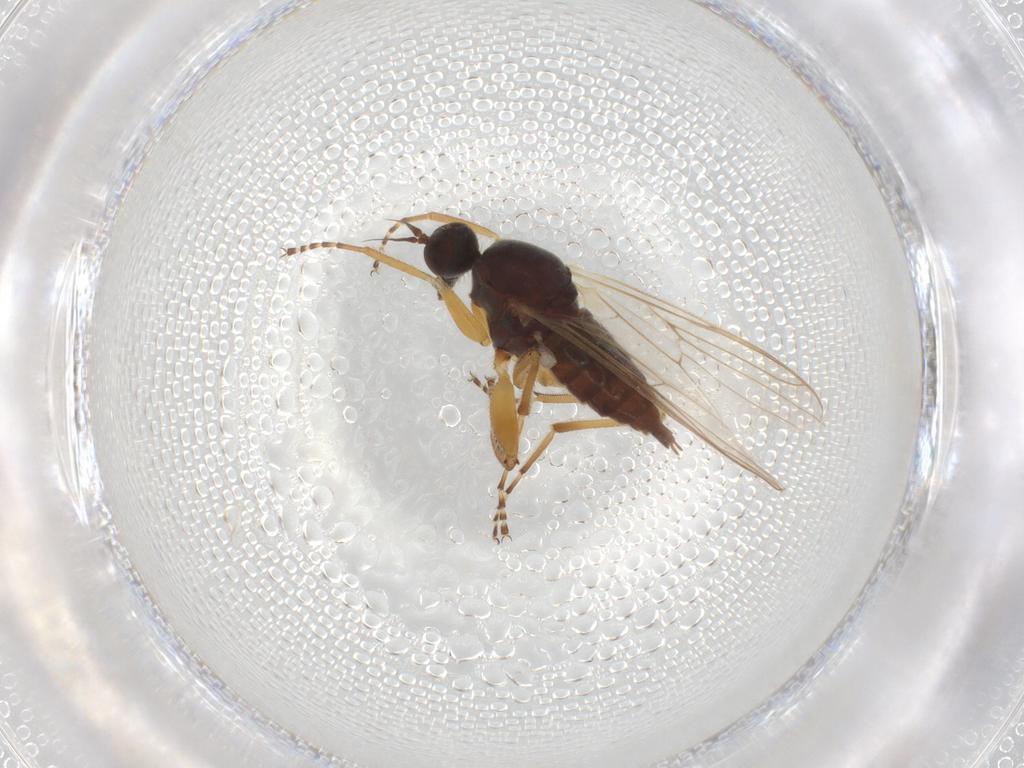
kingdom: Animalia
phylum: Arthropoda
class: Insecta
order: Diptera
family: Chironomidae
